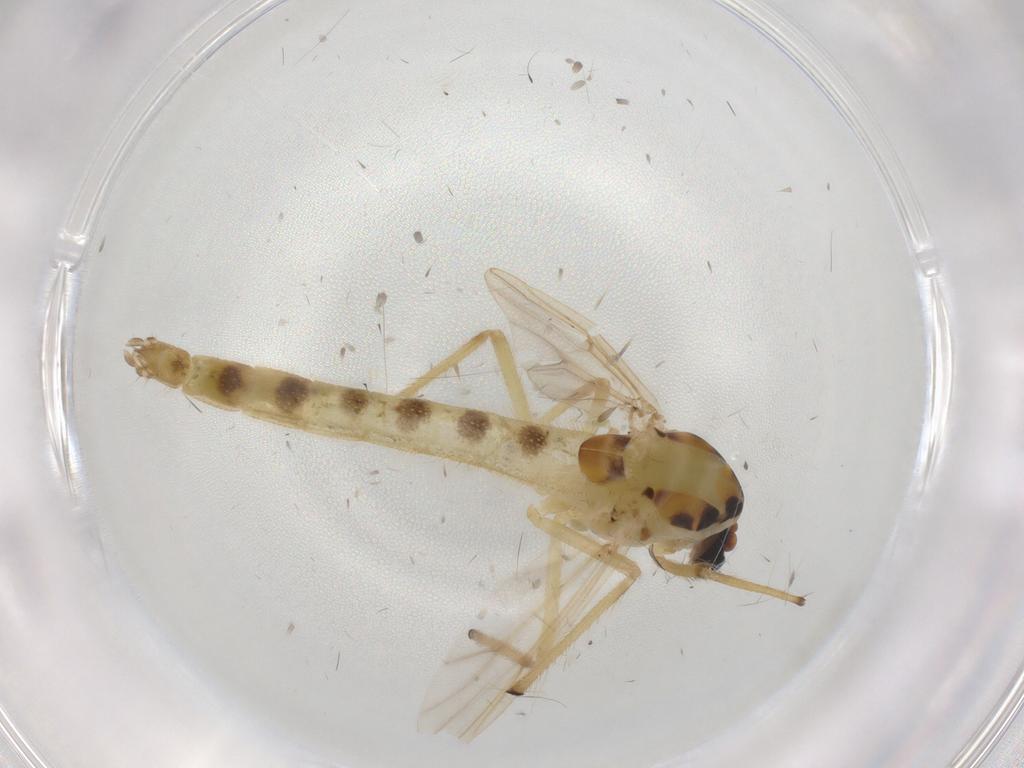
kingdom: Animalia
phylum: Arthropoda
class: Insecta
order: Diptera
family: Chironomidae
